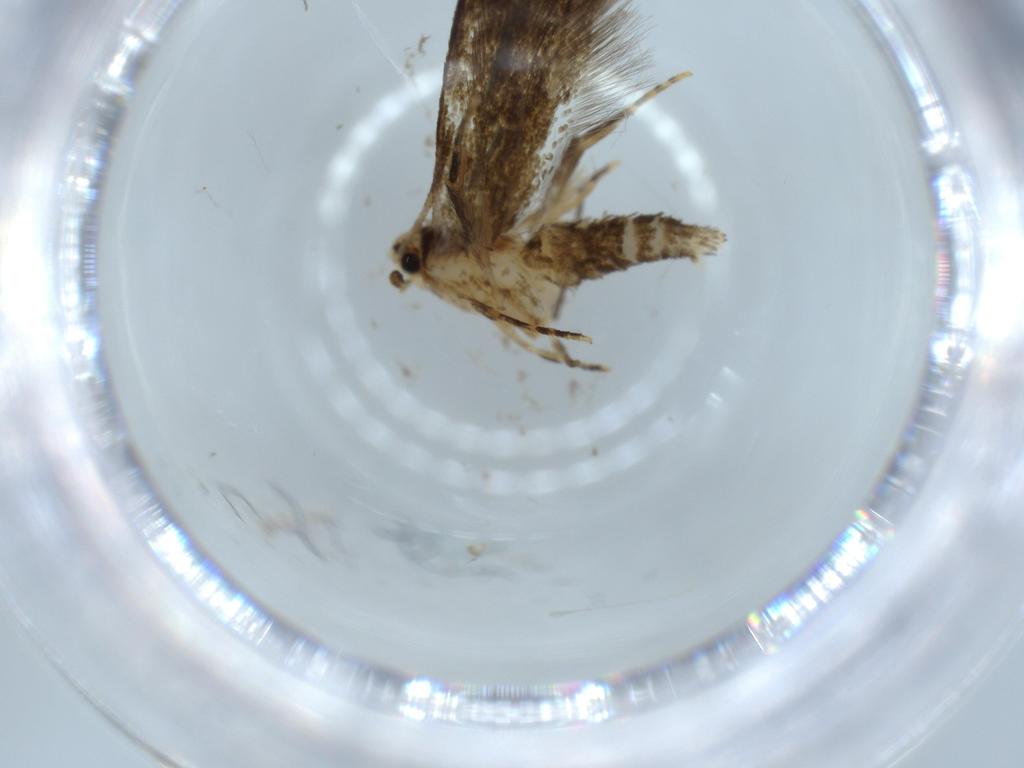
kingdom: Animalia
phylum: Arthropoda
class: Insecta
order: Lepidoptera
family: Tineidae
